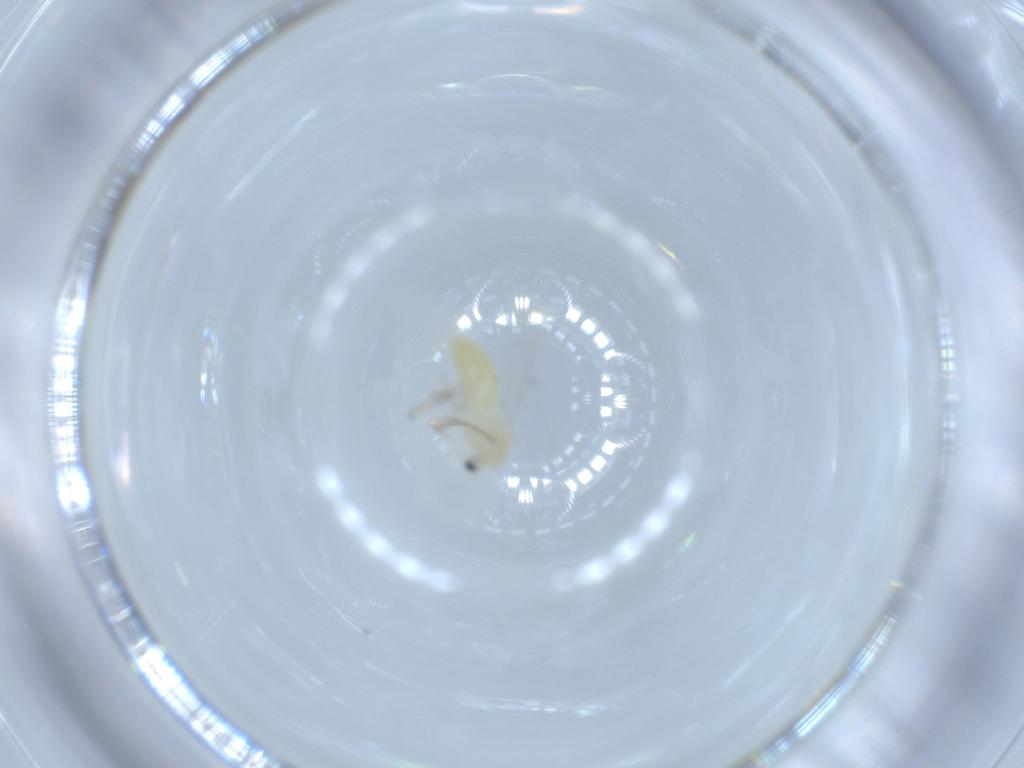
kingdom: Animalia
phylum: Arthropoda
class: Insecta
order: Diptera
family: Chironomidae
